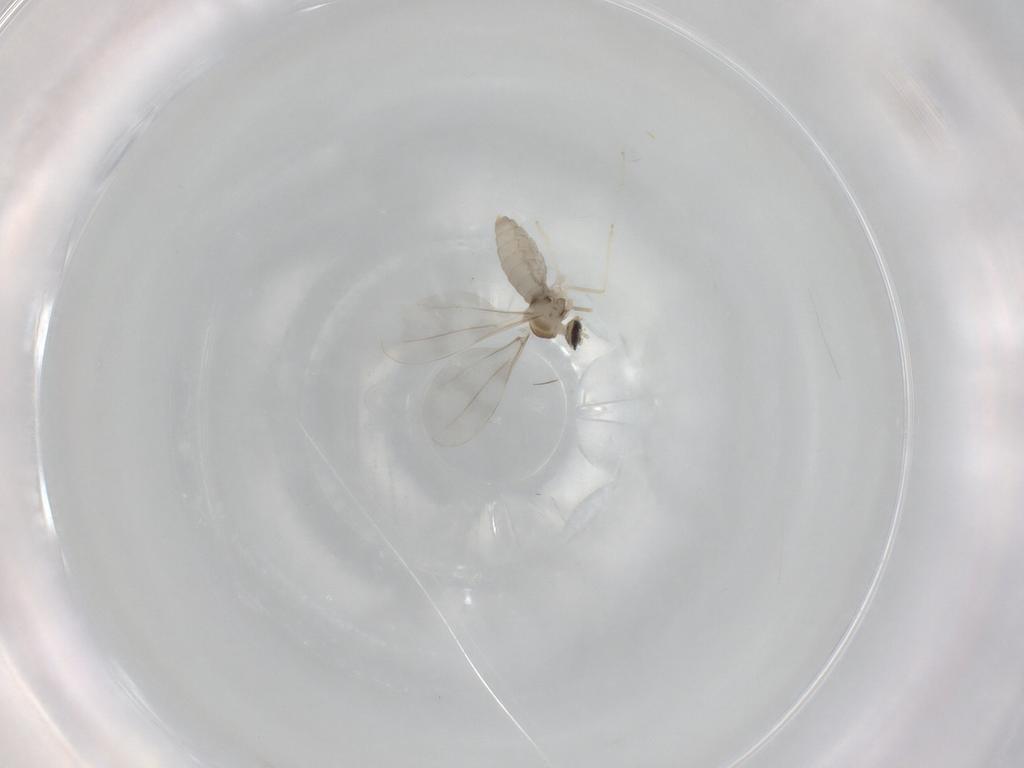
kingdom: Animalia
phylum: Arthropoda
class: Insecta
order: Diptera
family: Cecidomyiidae
